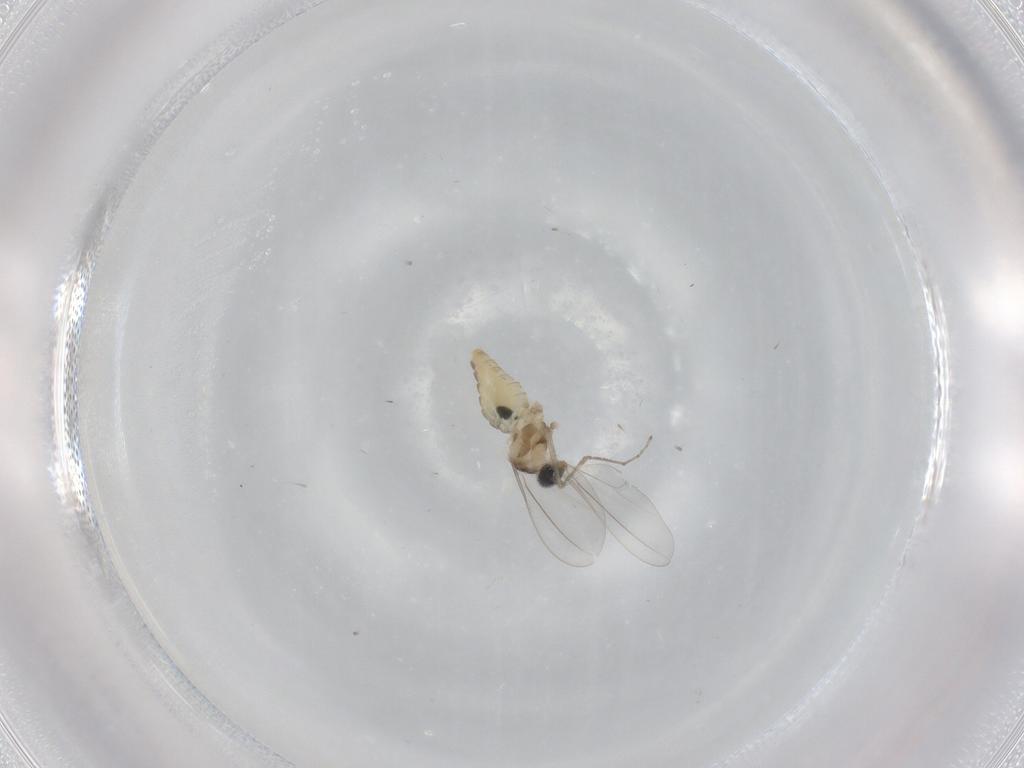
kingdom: Animalia
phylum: Arthropoda
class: Insecta
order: Diptera
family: Cecidomyiidae
